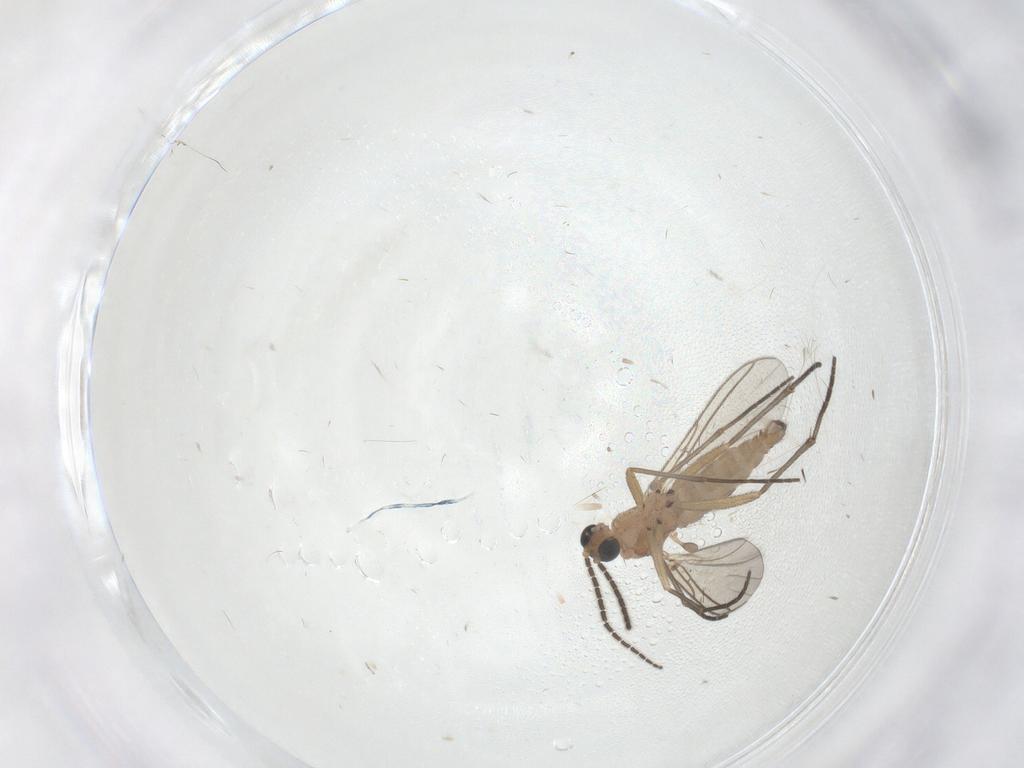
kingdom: Animalia
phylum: Arthropoda
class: Insecta
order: Diptera
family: Sciaridae
